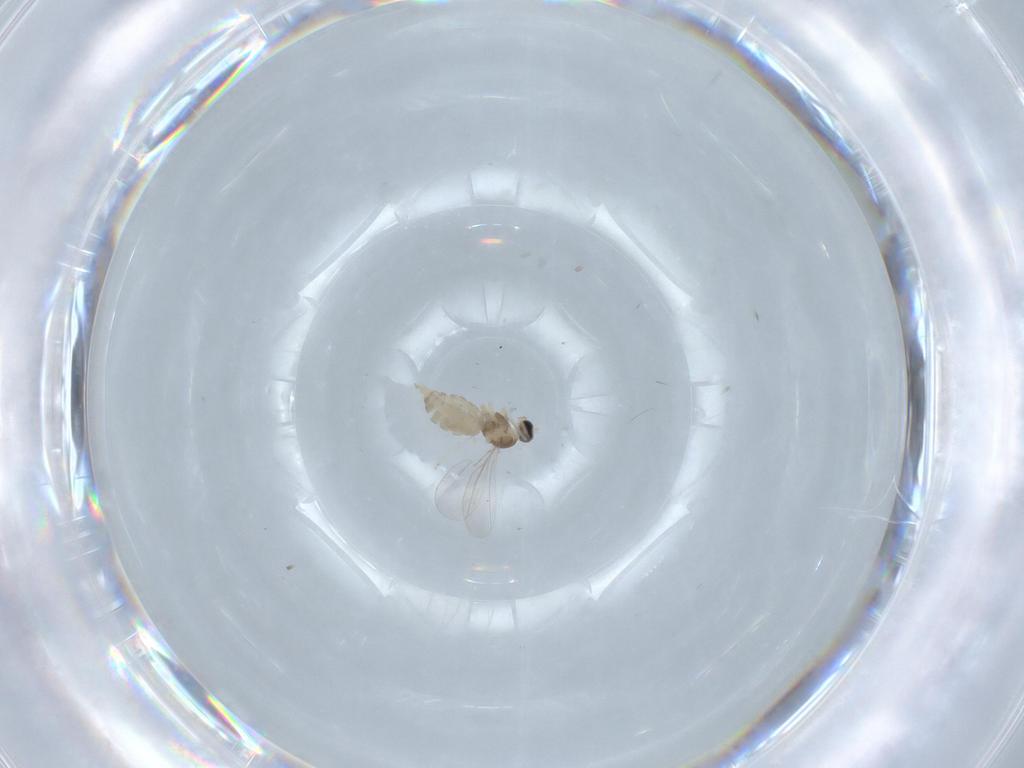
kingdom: Animalia
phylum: Arthropoda
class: Insecta
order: Diptera
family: Cecidomyiidae
